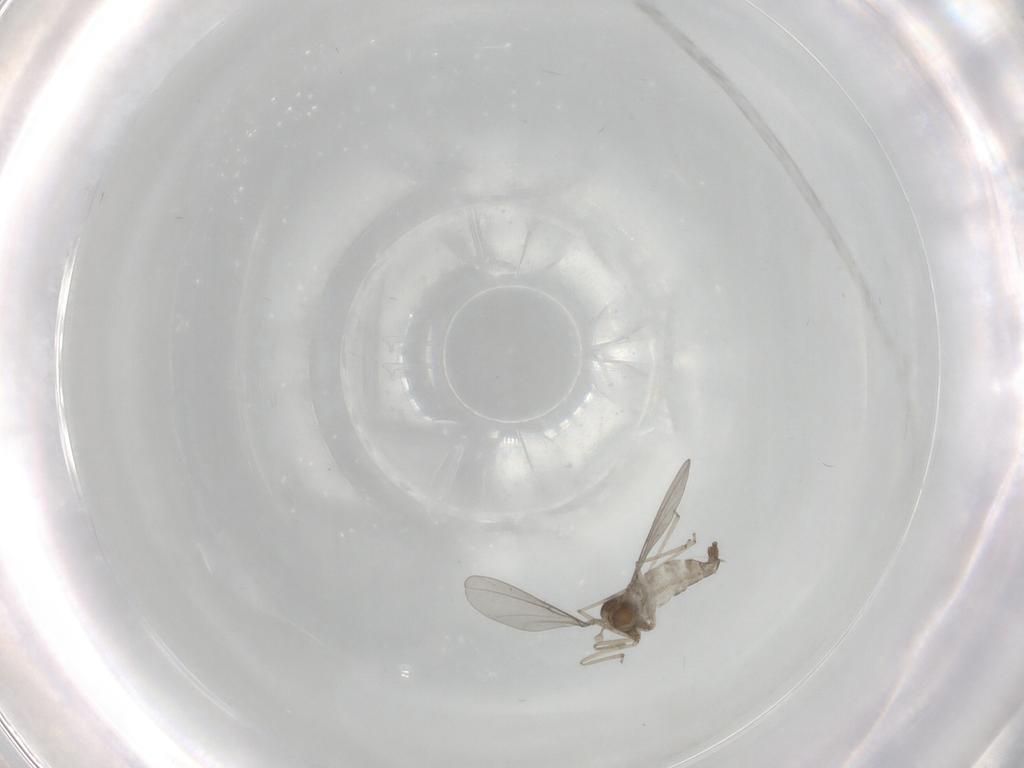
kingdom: Animalia
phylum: Arthropoda
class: Insecta
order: Diptera
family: Cecidomyiidae
